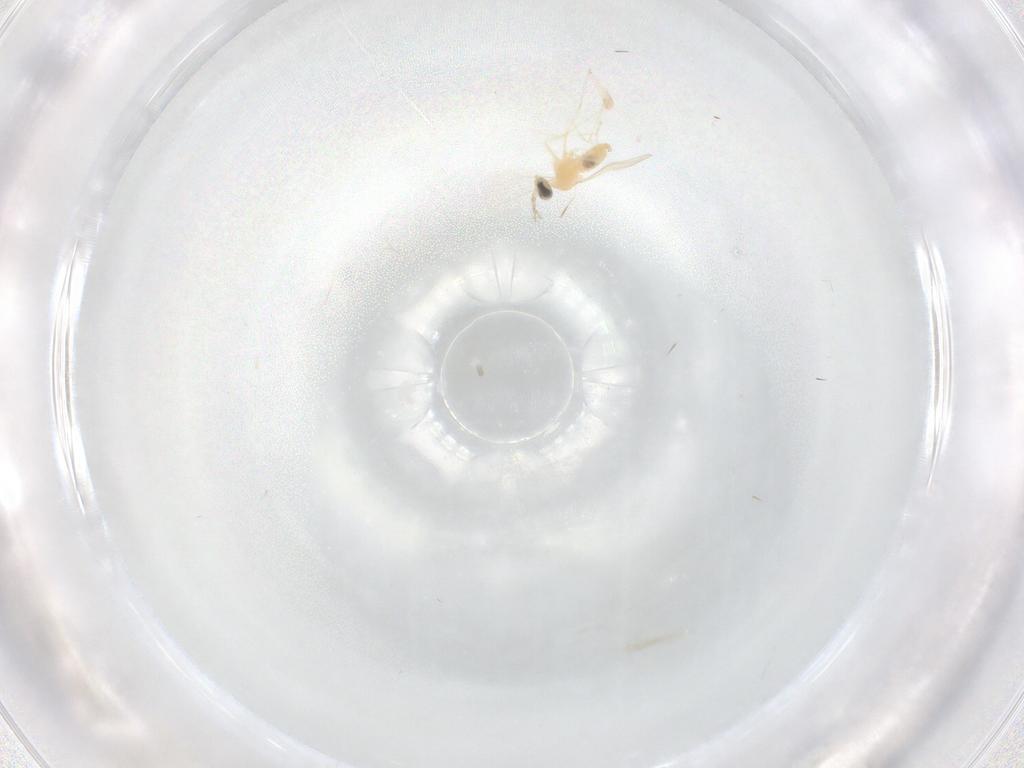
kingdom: Animalia
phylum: Arthropoda
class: Insecta
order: Diptera
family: Cecidomyiidae
